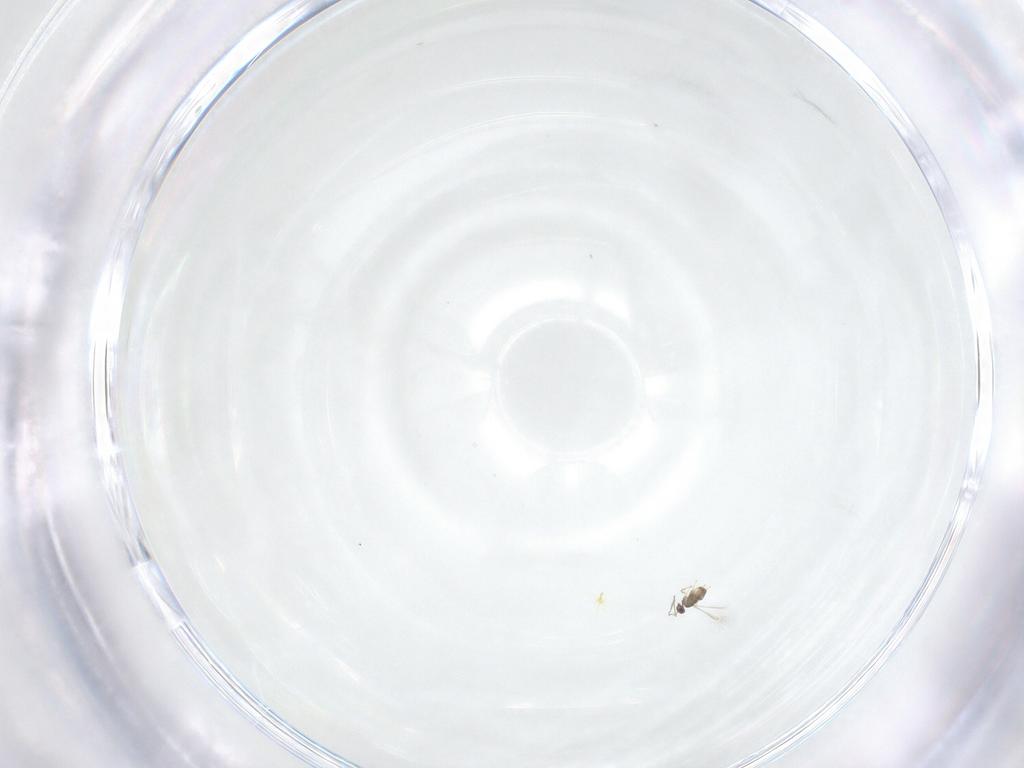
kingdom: Animalia
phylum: Arthropoda
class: Insecta
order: Hymenoptera
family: Mymaridae
